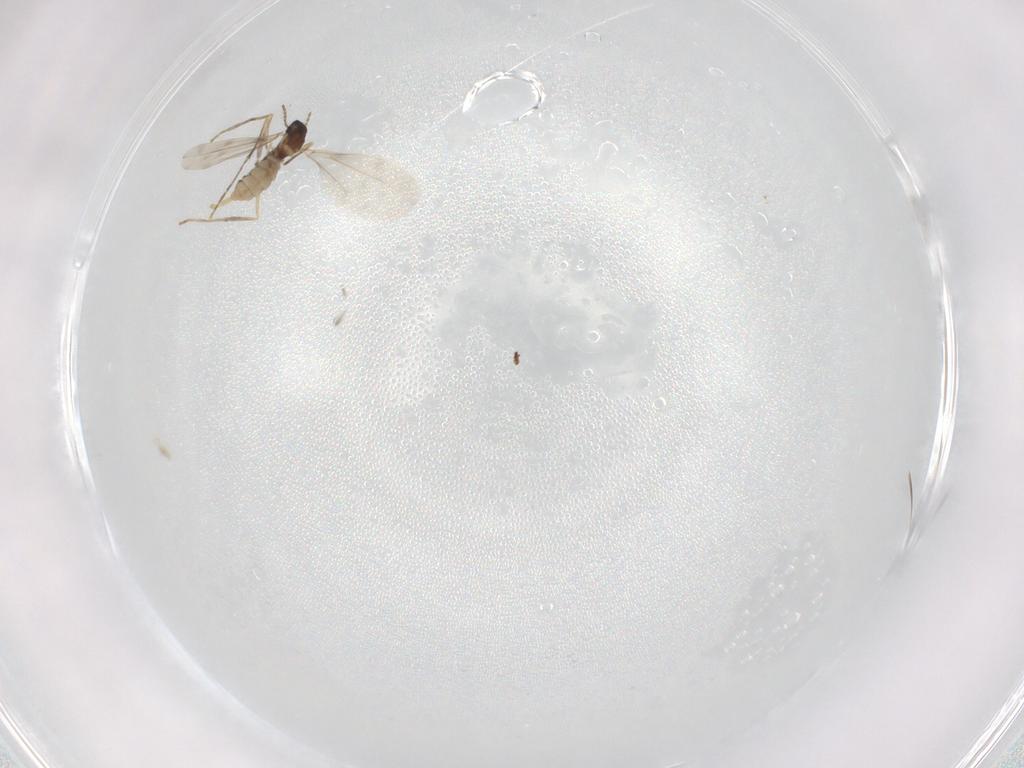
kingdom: Animalia
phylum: Arthropoda
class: Insecta
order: Diptera
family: Cecidomyiidae
